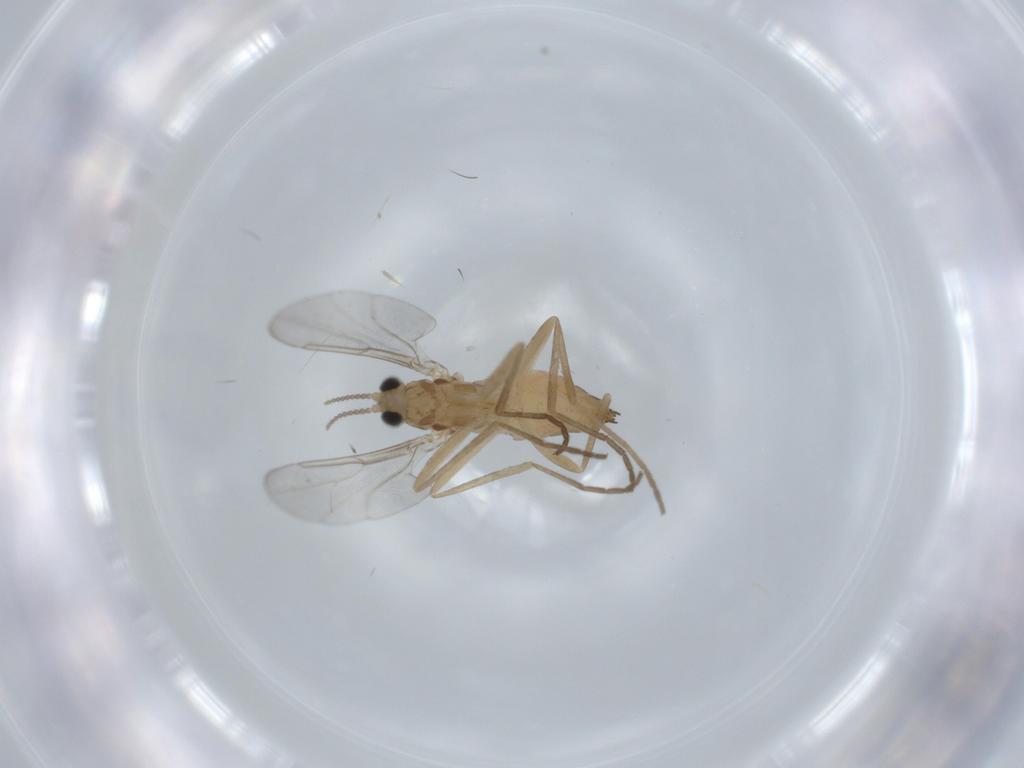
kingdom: Animalia
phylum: Arthropoda
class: Insecta
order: Diptera
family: Cecidomyiidae
